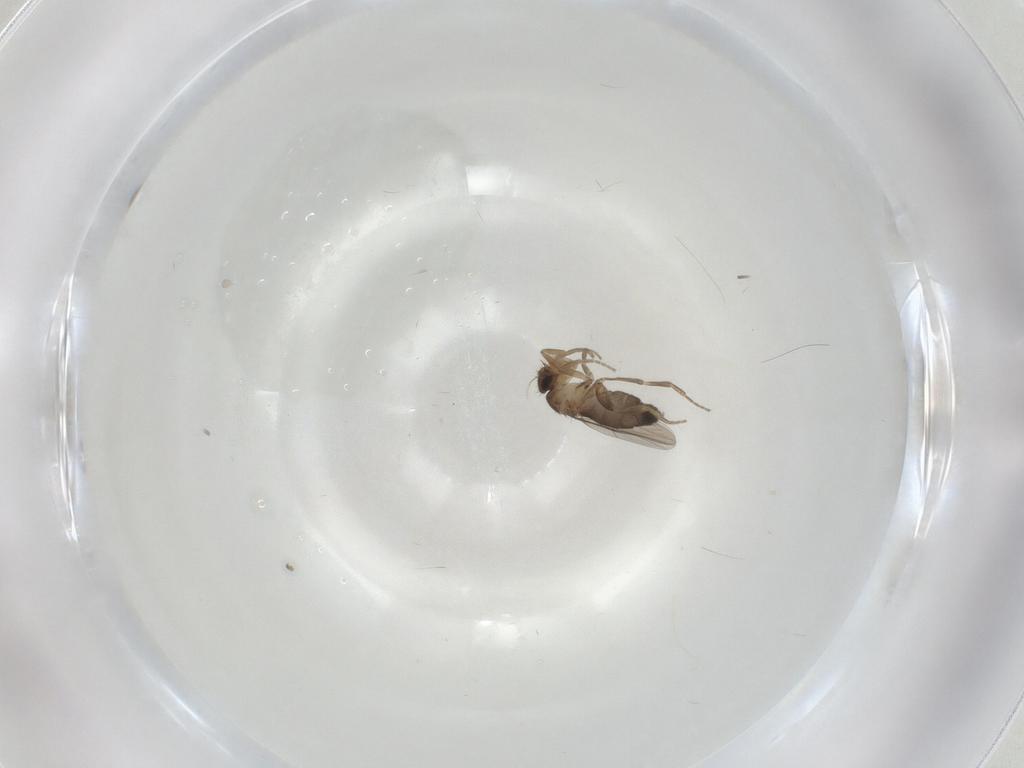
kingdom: Animalia
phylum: Arthropoda
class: Insecta
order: Diptera
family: Phoridae
